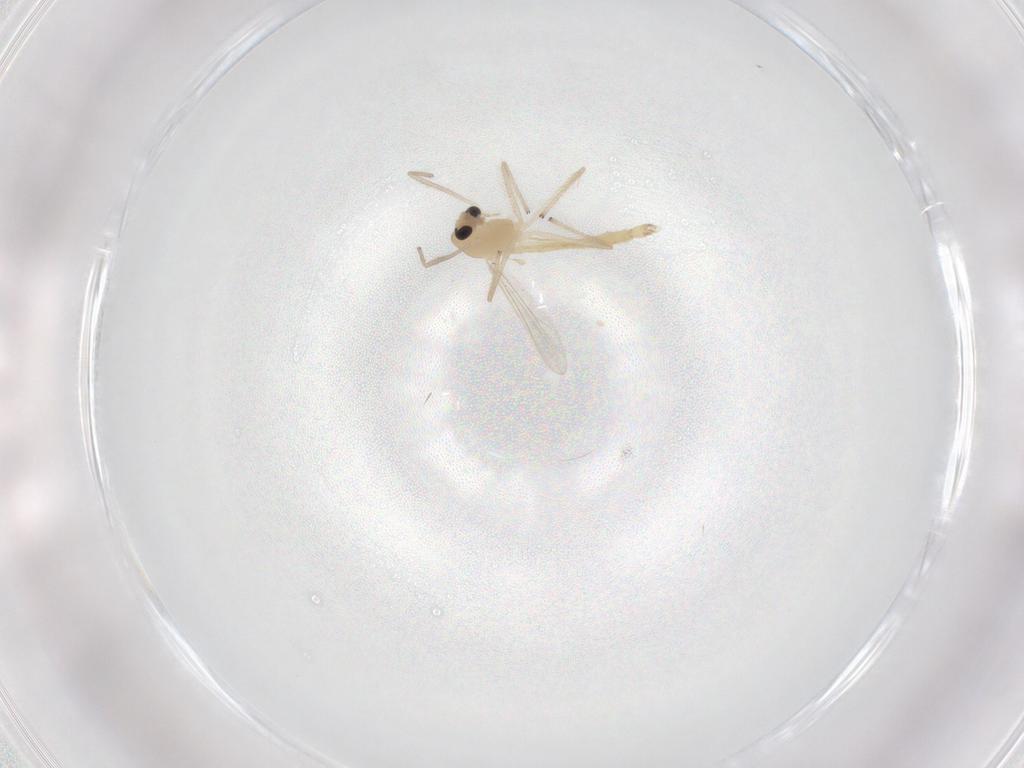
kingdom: Animalia
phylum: Arthropoda
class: Insecta
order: Diptera
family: Chironomidae
